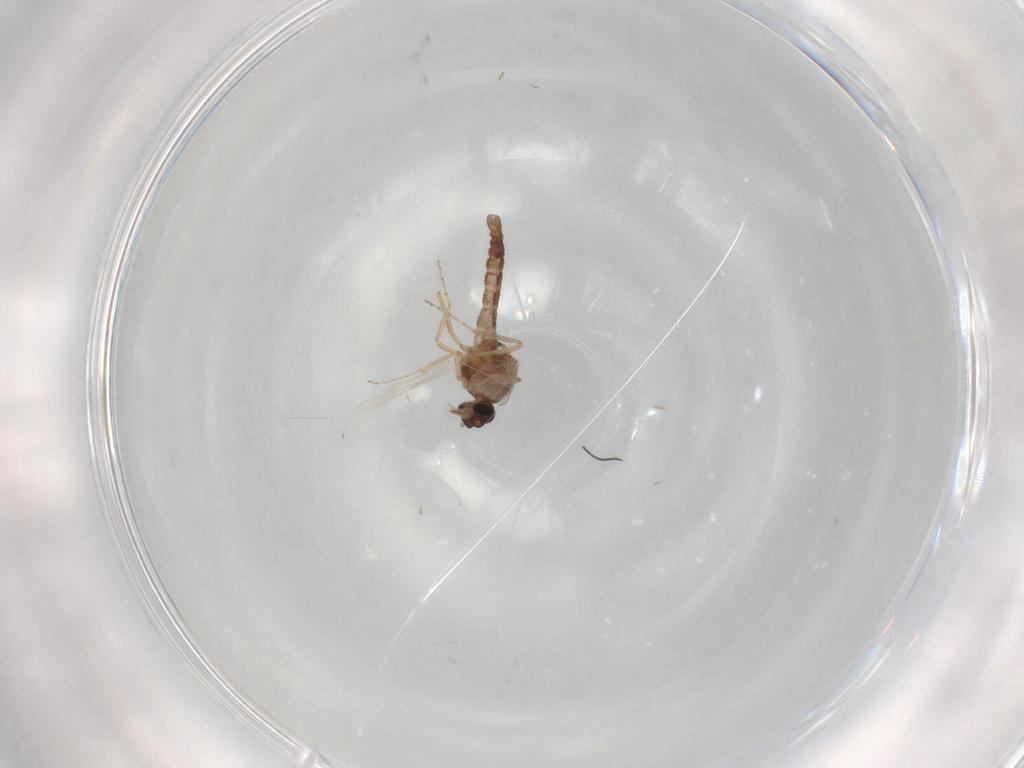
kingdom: Animalia
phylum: Arthropoda
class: Insecta
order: Diptera
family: Ceratopogonidae
